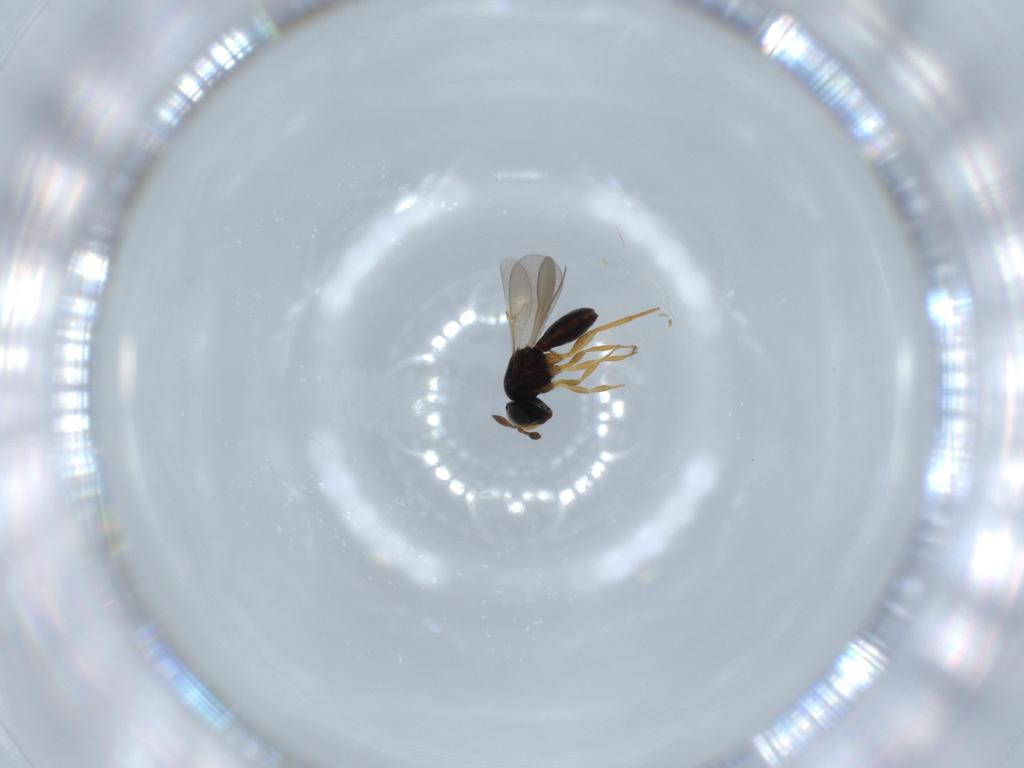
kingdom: Animalia
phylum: Arthropoda
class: Insecta
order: Hymenoptera
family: Scelionidae
